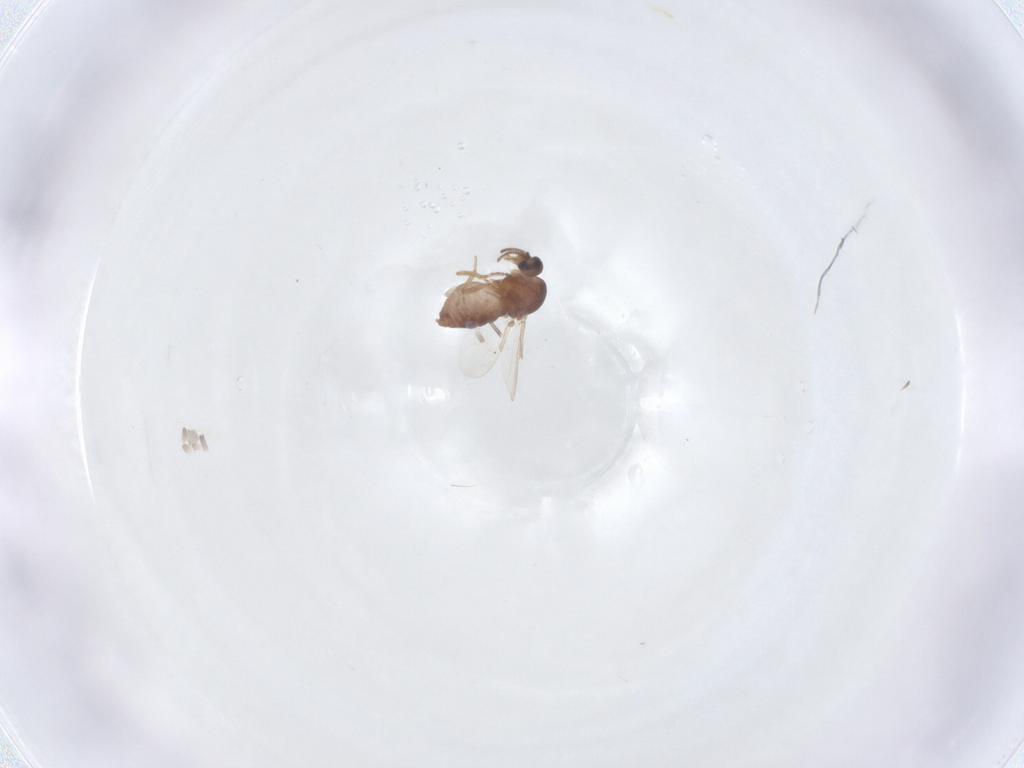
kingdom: Animalia
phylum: Arthropoda
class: Insecta
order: Diptera
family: Ceratopogonidae
